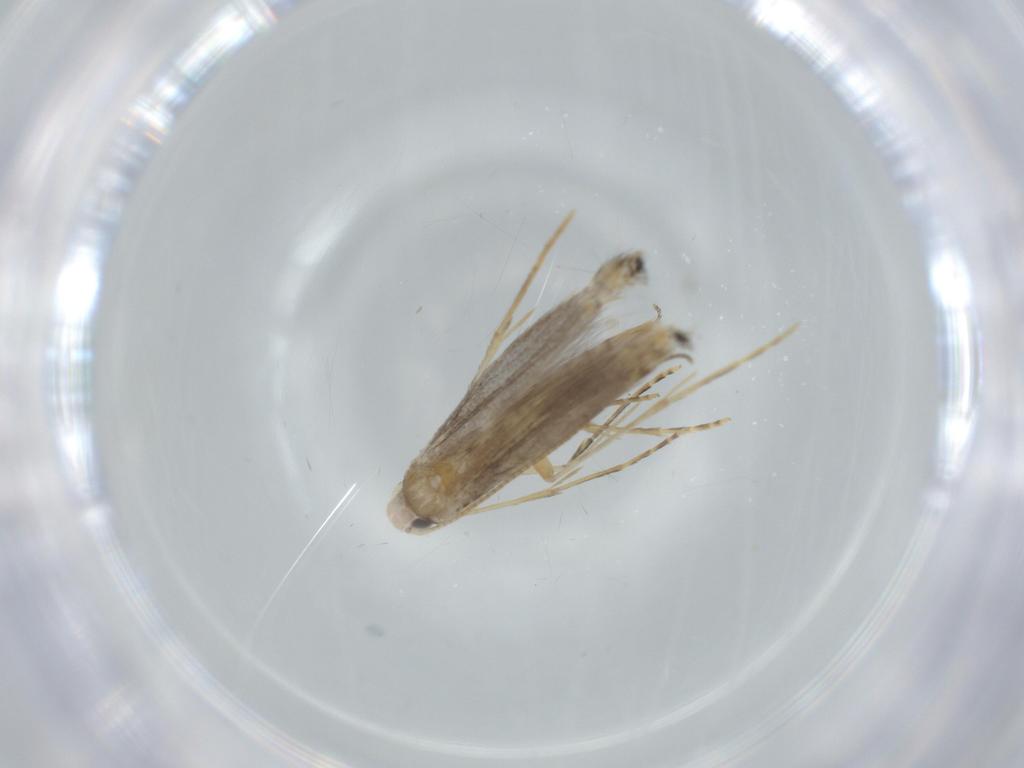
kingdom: Animalia
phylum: Arthropoda
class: Insecta
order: Lepidoptera
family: Gracillariidae
